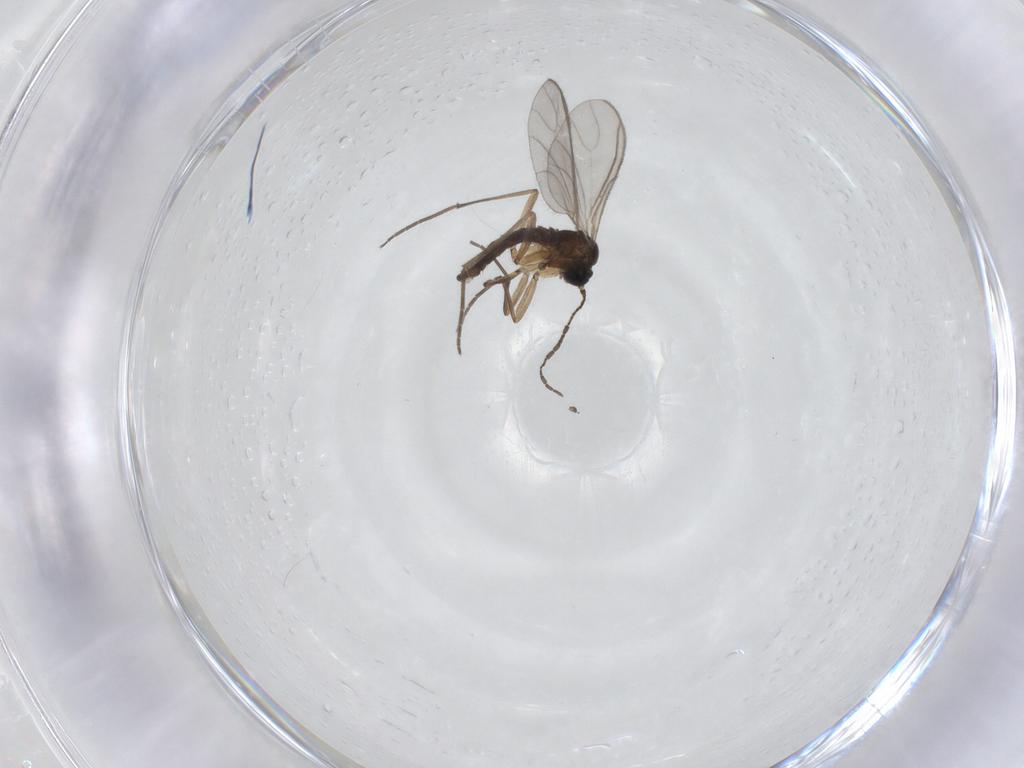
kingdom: Animalia
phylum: Arthropoda
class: Insecta
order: Diptera
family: Sciaridae
